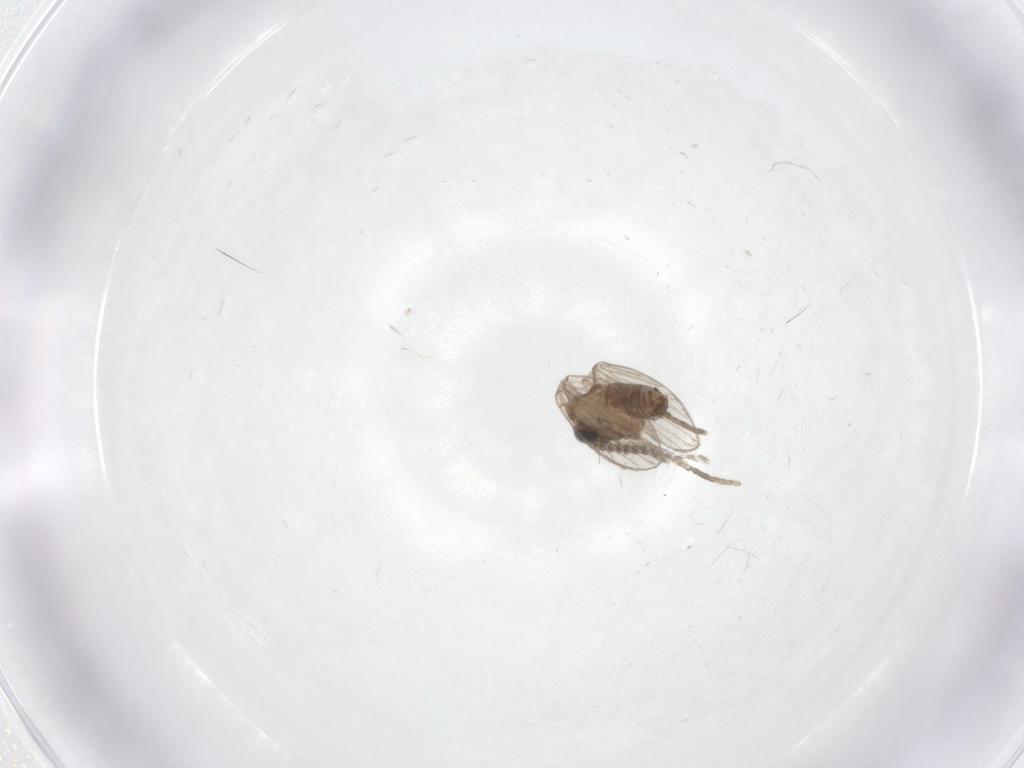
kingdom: Animalia
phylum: Arthropoda
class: Insecta
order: Diptera
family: Psychodidae
